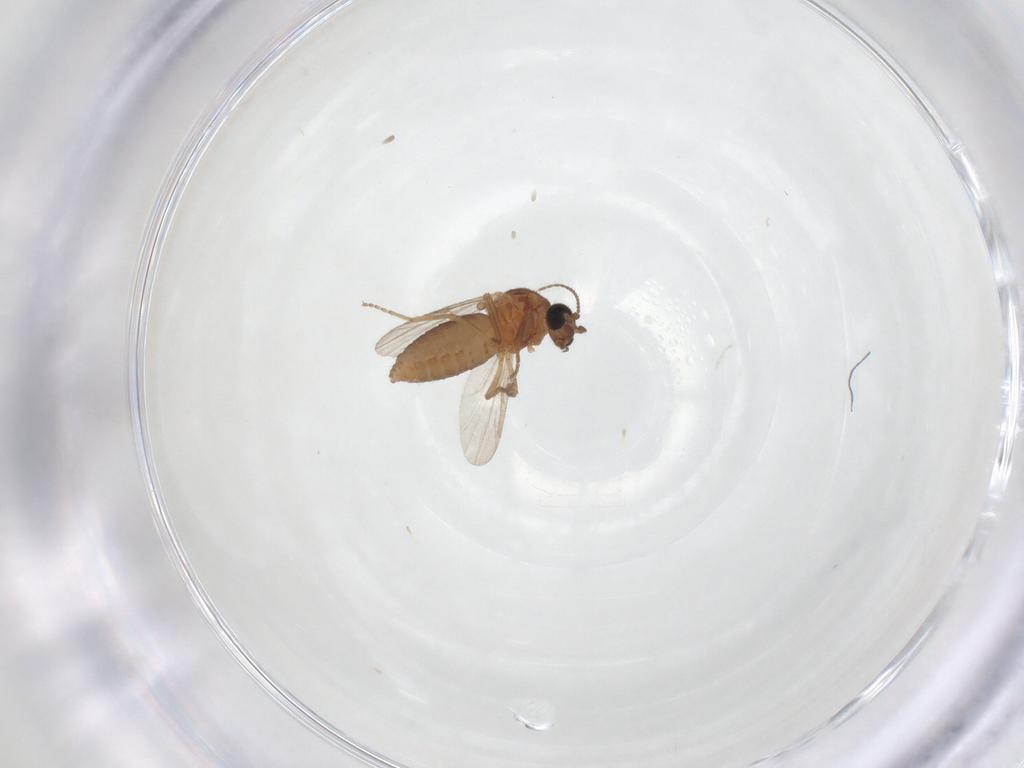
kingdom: Animalia
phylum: Arthropoda
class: Insecta
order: Diptera
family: Ceratopogonidae
